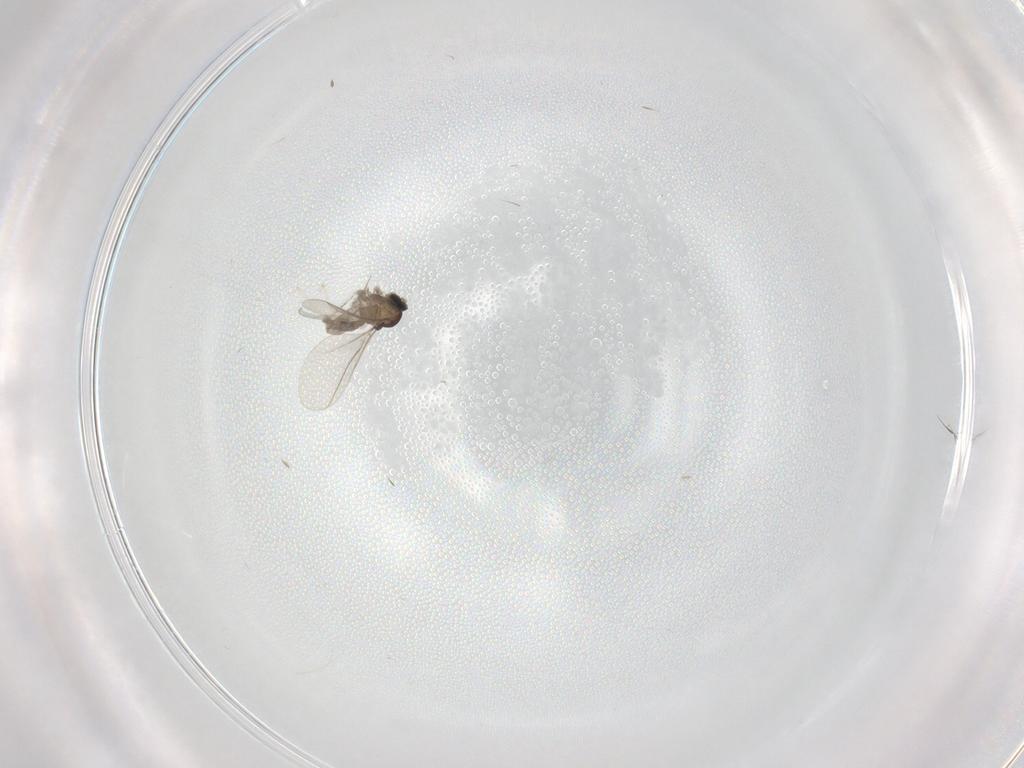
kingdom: Animalia
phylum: Arthropoda
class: Insecta
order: Diptera
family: Cecidomyiidae
